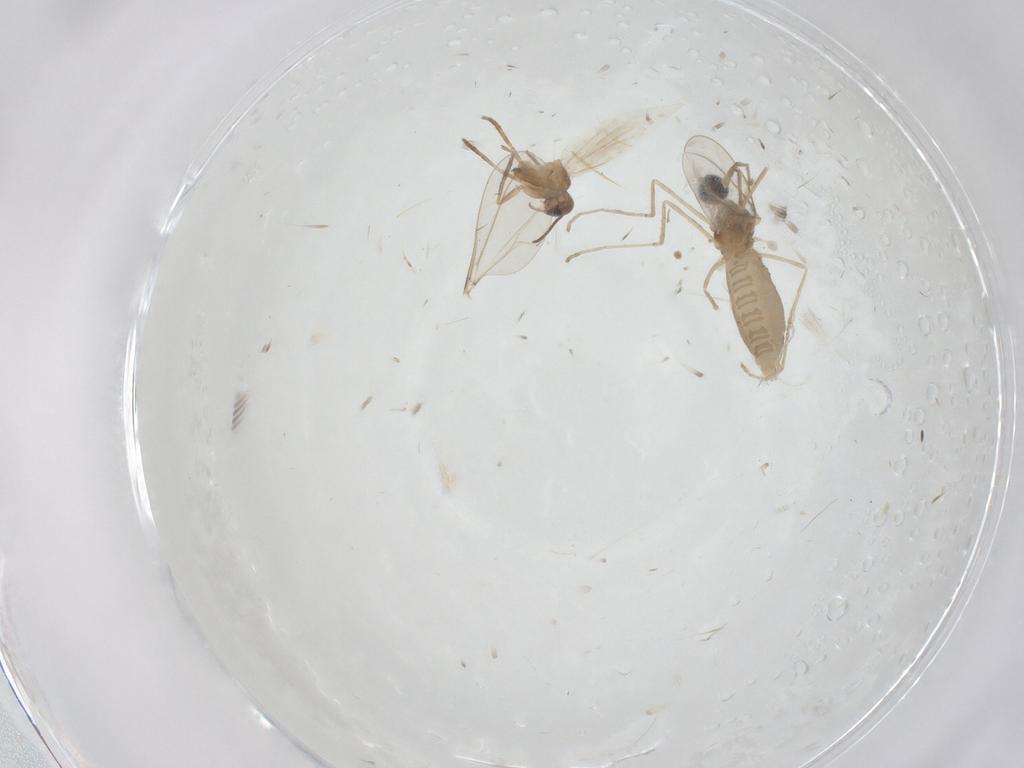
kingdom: Animalia
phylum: Arthropoda
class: Insecta
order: Lepidoptera
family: Heliozelidae
